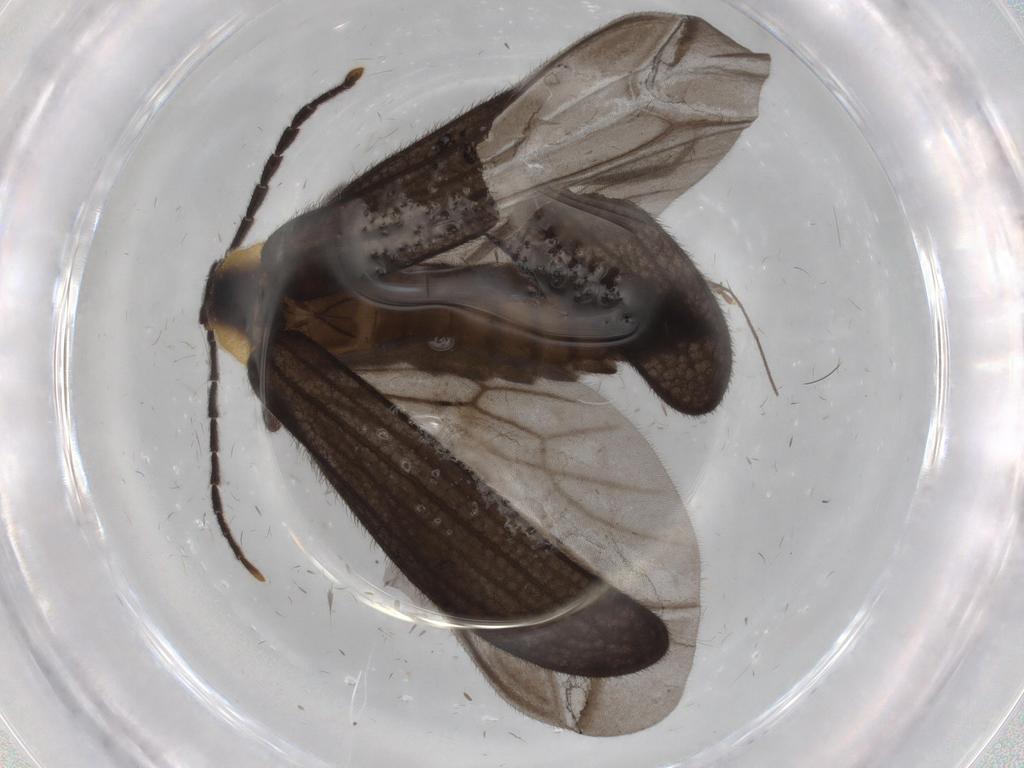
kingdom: Animalia
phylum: Arthropoda
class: Insecta
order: Coleoptera
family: Lycidae
